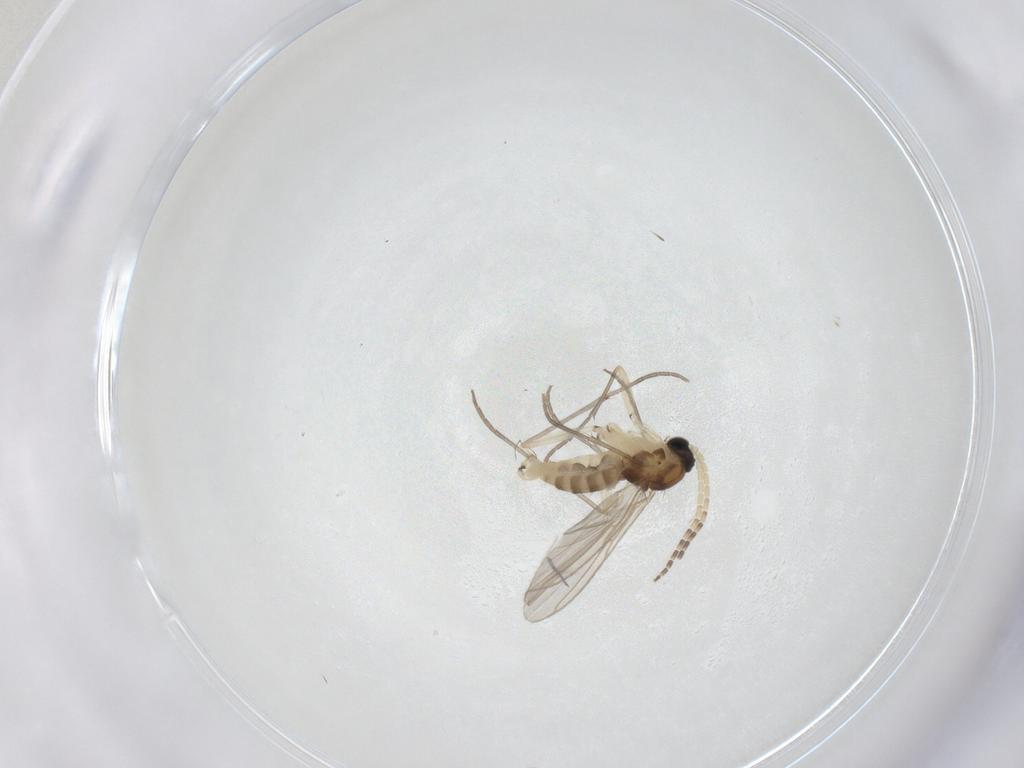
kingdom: Animalia
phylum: Arthropoda
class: Insecta
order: Diptera
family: Sciaridae
